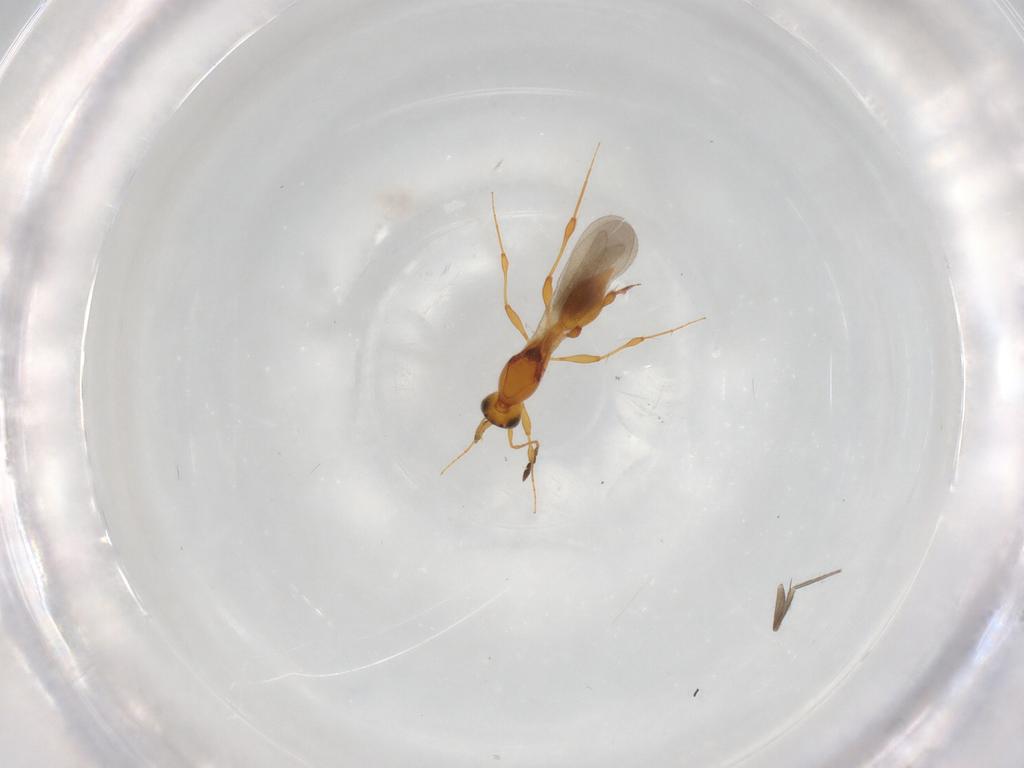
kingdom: Animalia
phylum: Arthropoda
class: Insecta
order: Hymenoptera
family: Platygastridae
